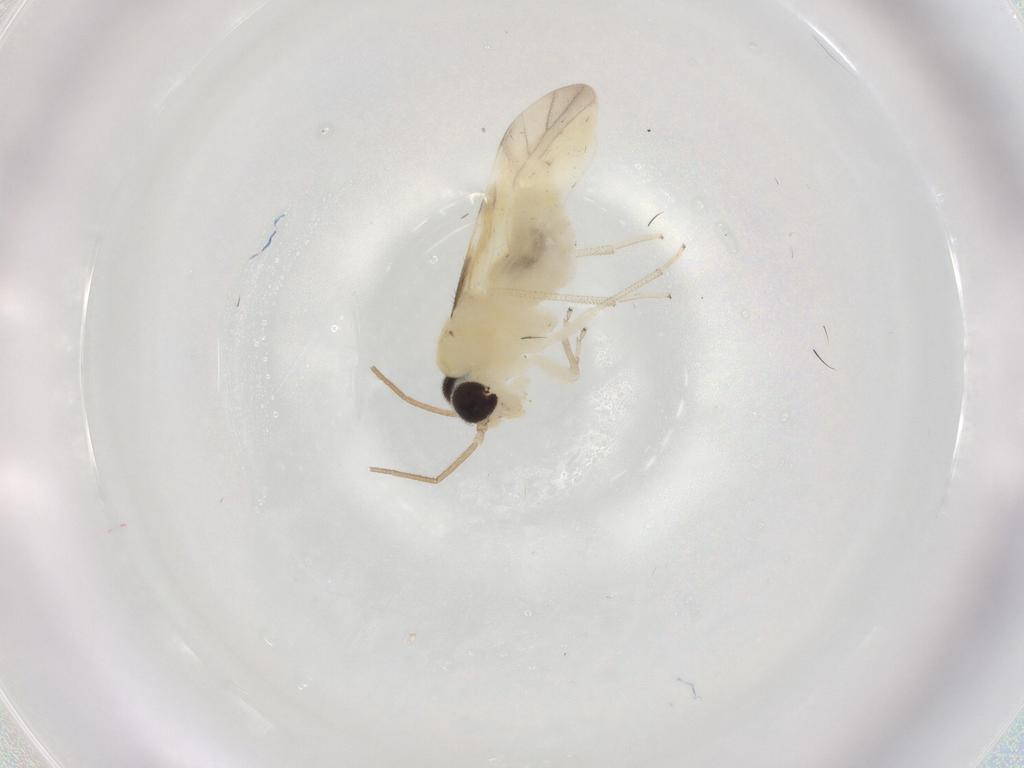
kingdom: Animalia
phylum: Arthropoda
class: Insecta
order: Psocodea
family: Caeciliusidae
